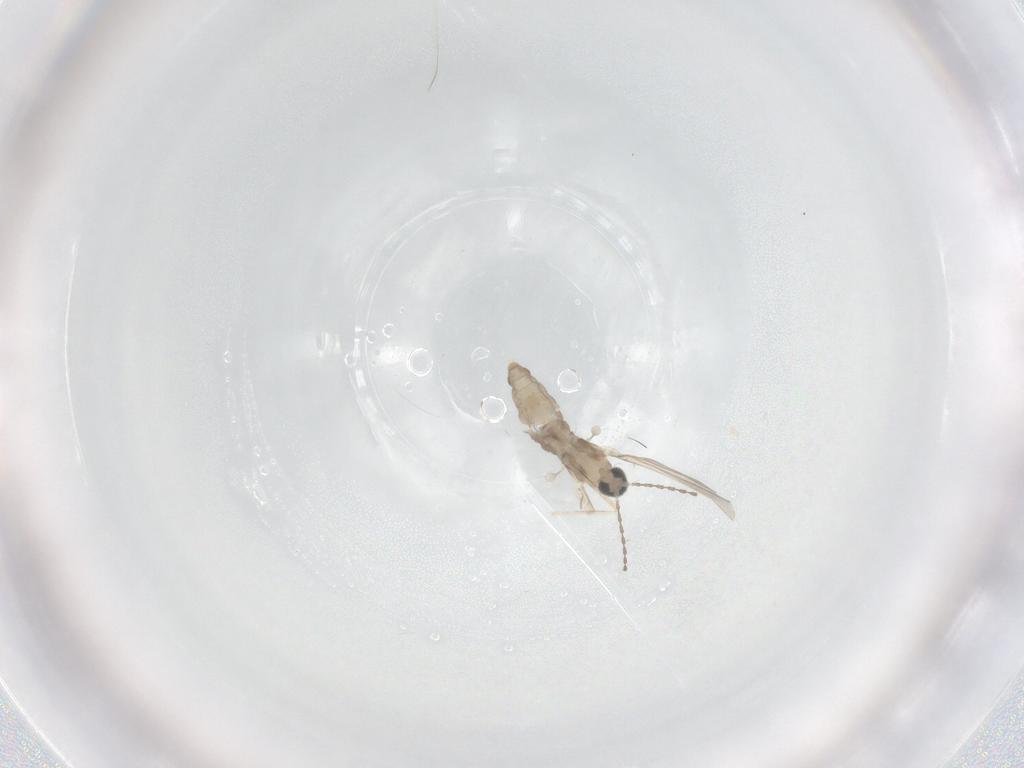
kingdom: Animalia
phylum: Arthropoda
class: Insecta
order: Diptera
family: Cecidomyiidae
